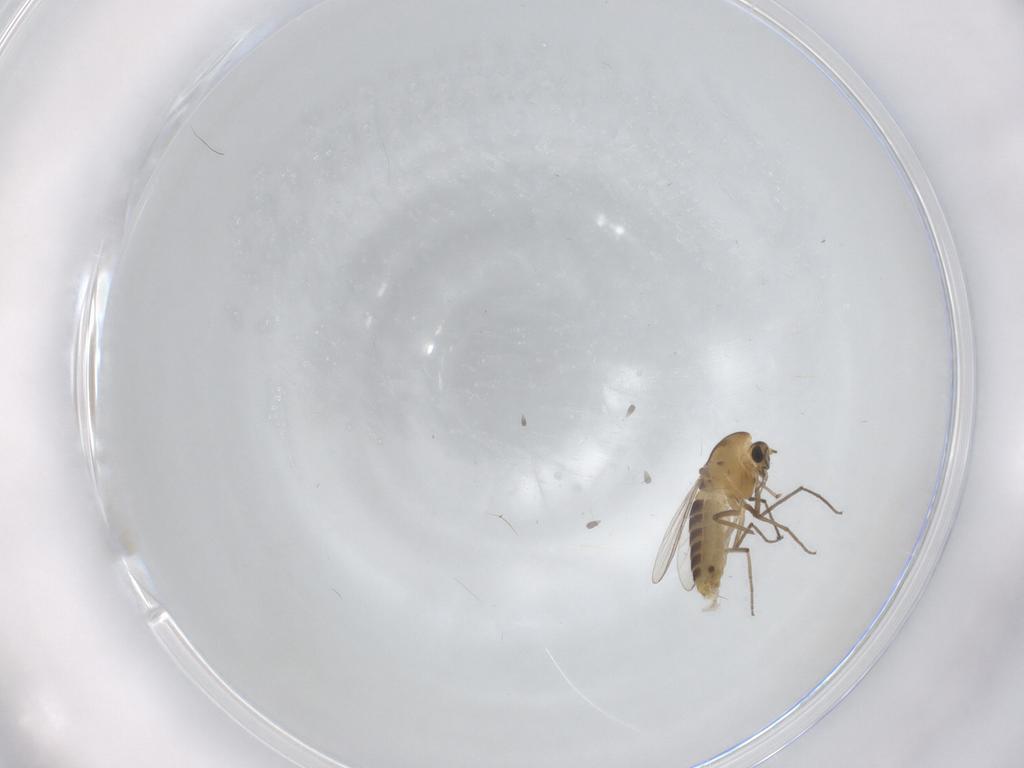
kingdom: Animalia
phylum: Arthropoda
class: Insecta
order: Diptera
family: Chironomidae
